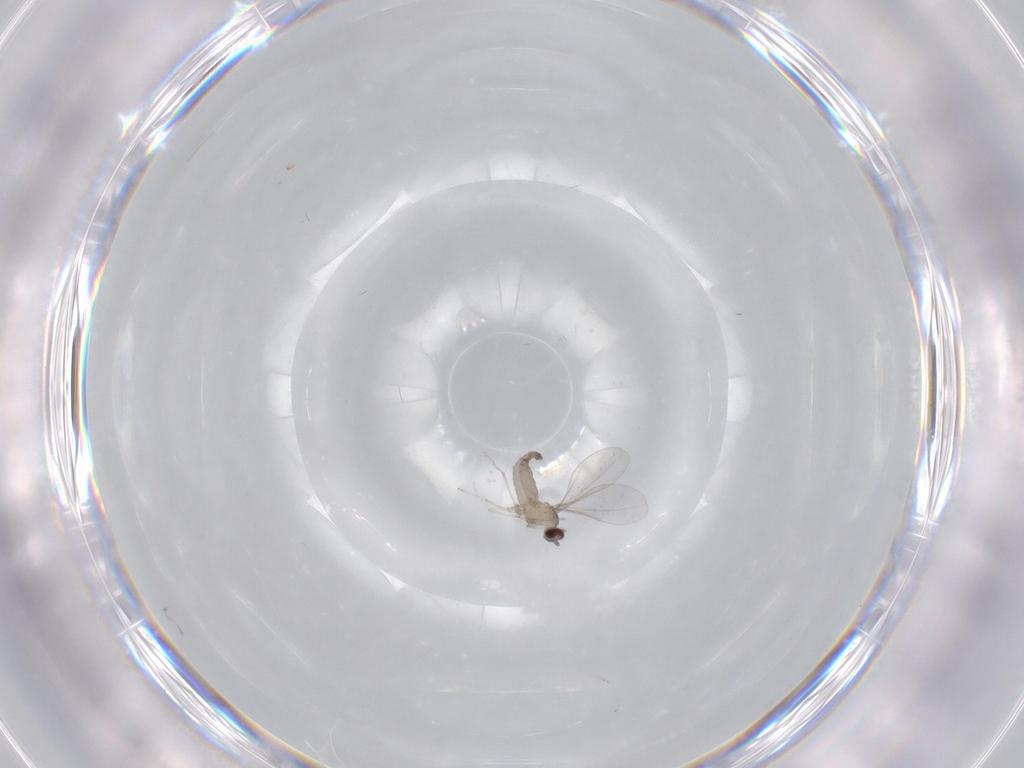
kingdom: Animalia
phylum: Arthropoda
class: Insecta
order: Diptera
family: Cecidomyiidae
